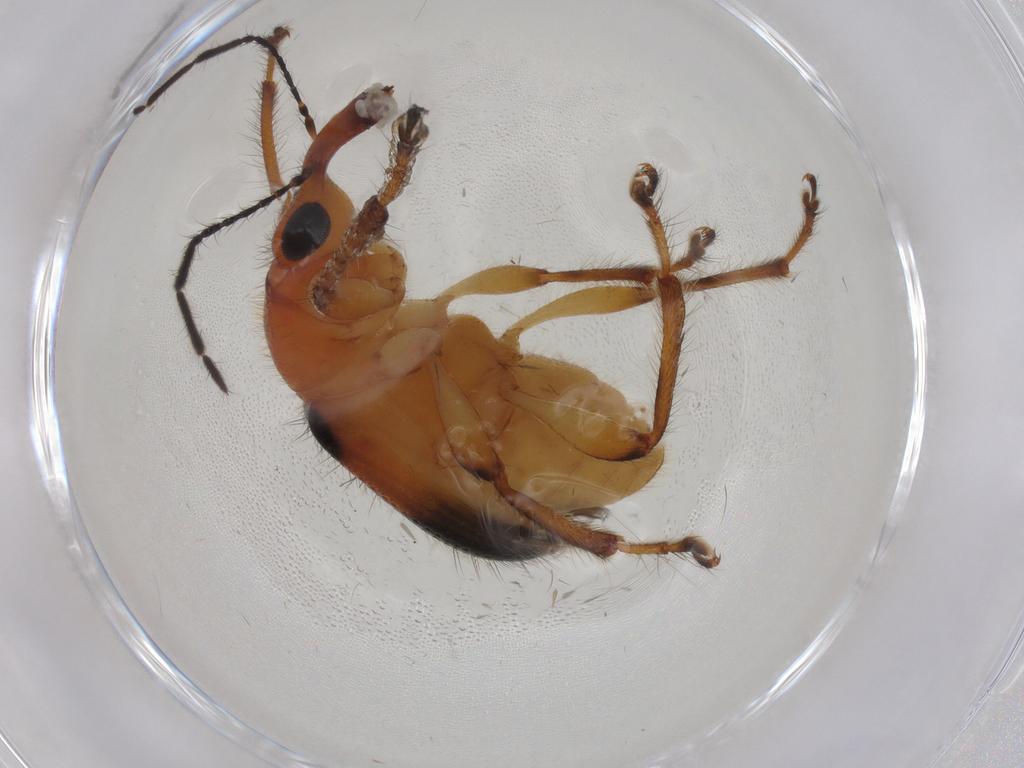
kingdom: Animalia
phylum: Arthropoda
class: Insecta
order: Coleoptera
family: Attelabidae
